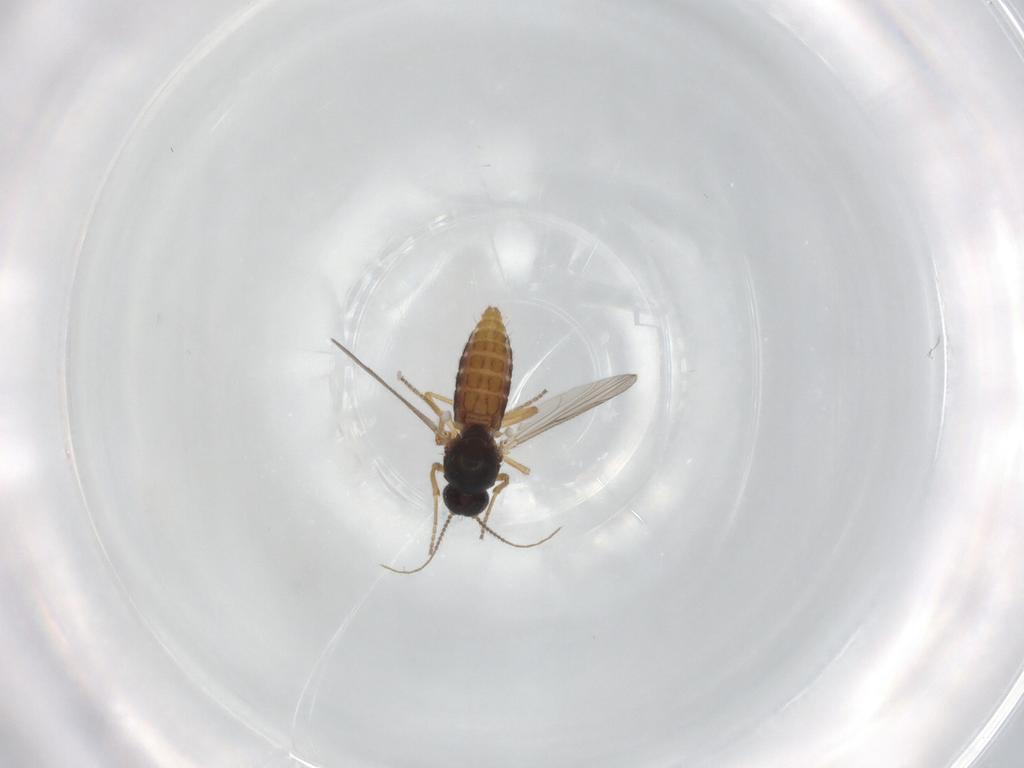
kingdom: Animalia
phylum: Arthropoda
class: Insecta
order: Diptera
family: Ceratopogonidae
